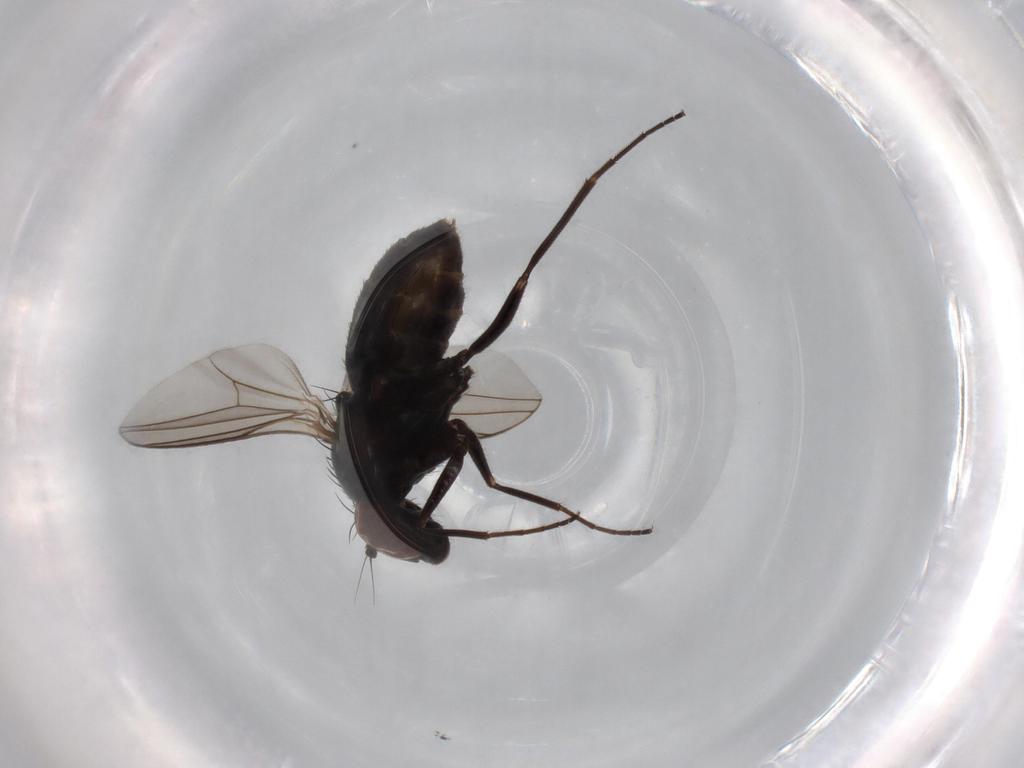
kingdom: Animalia
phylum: Arthropoda
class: Insecta
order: Diptera
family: Dolichopodidae
